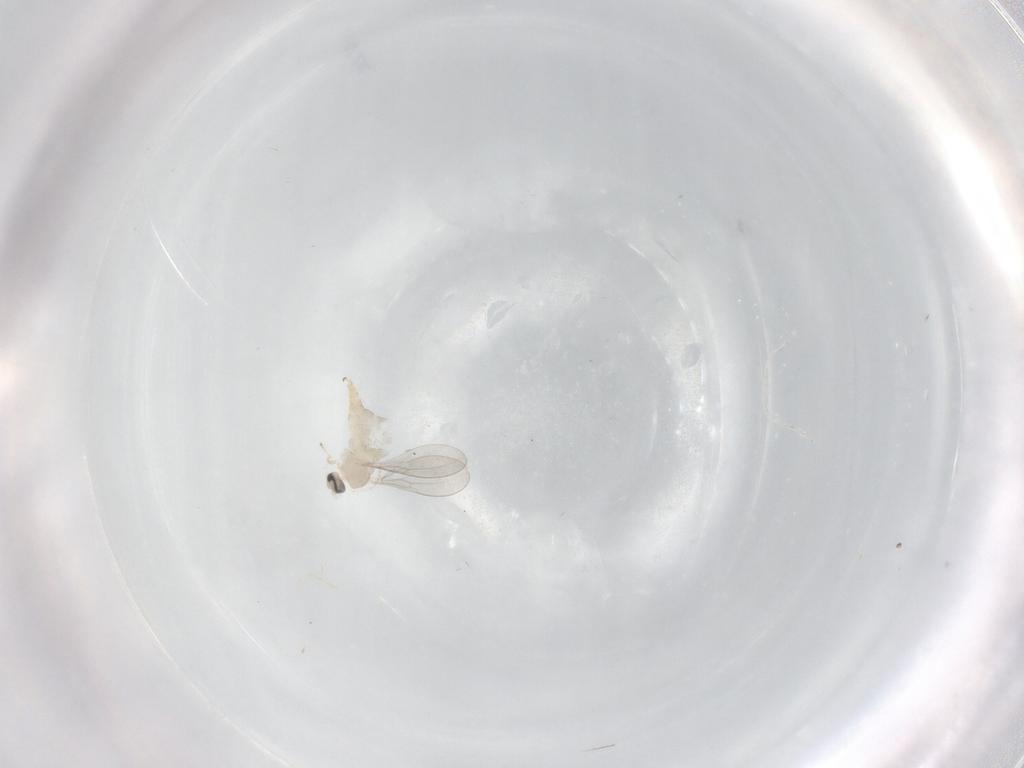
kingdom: Animalia
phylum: Arthropoda
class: Insecta
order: Diptera
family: Cecidomyiidae
